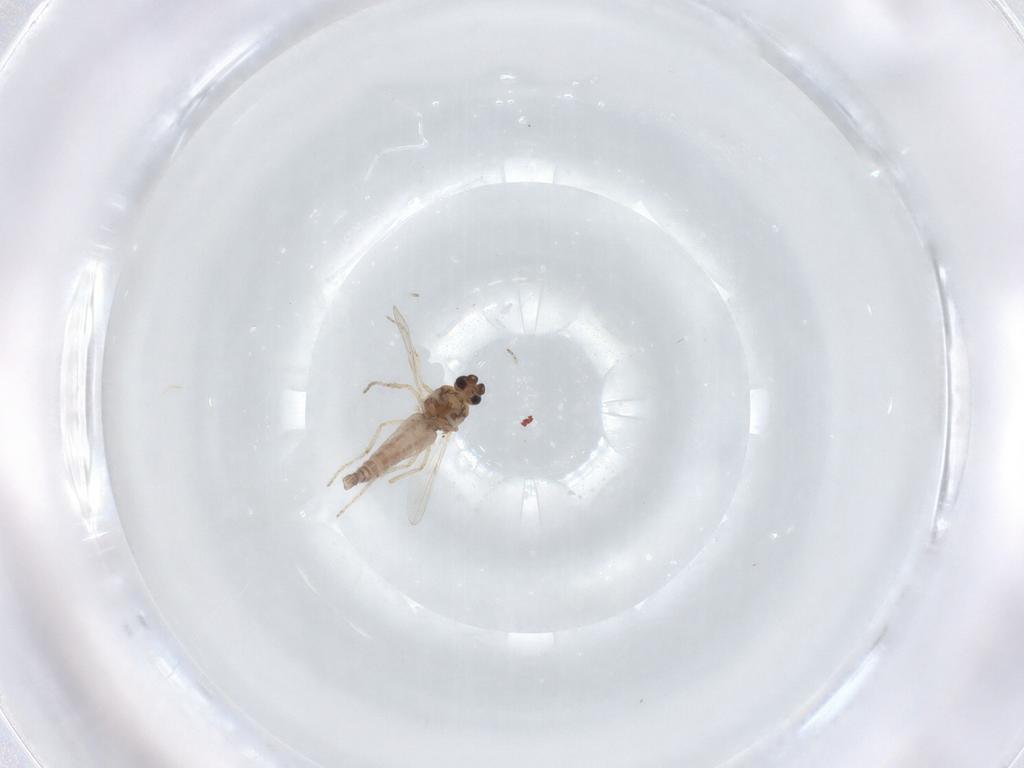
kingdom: Animalia
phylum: Arthropoda
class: Insecta
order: Diptera
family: Ceratopogonidae
